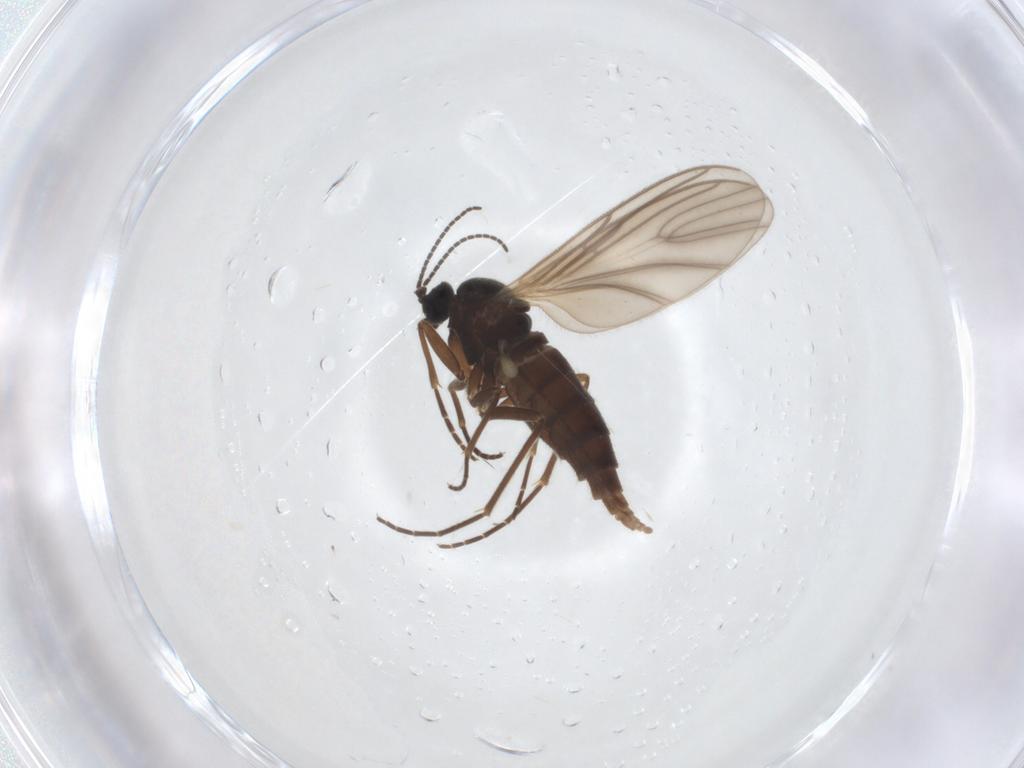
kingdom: Animalia
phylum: Arthropoda
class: Insecta
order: Diptera
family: Sciaridae
